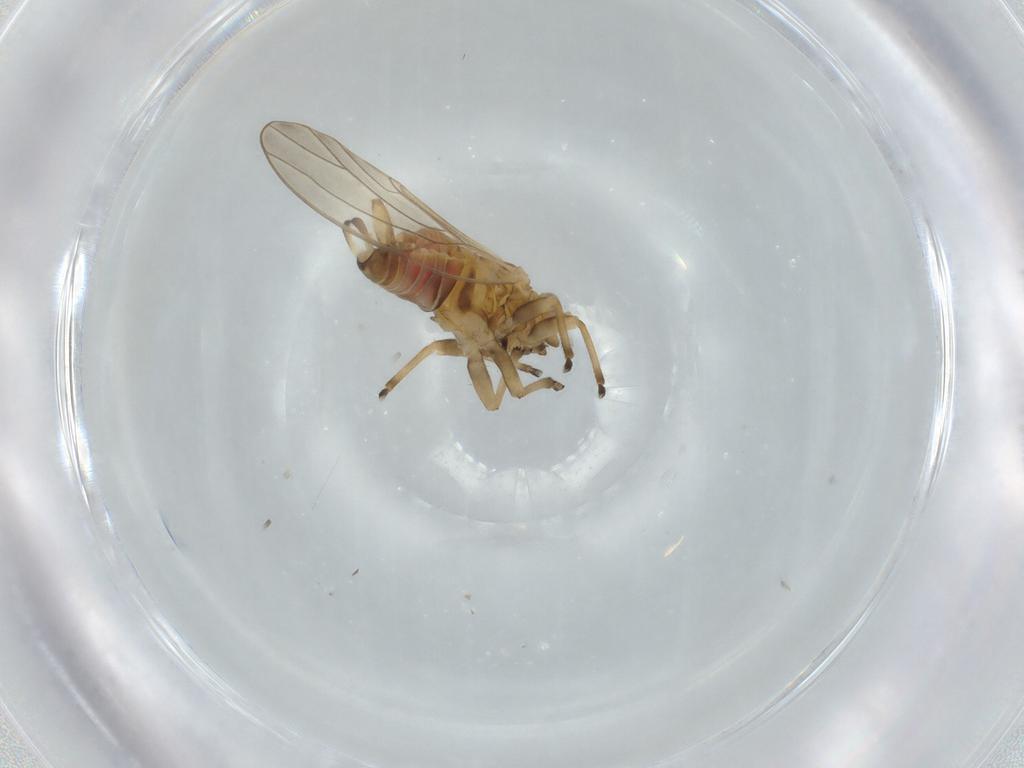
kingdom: Animalia
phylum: Arthropoda
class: Insecta
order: Hemiptera
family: Psyllidae
